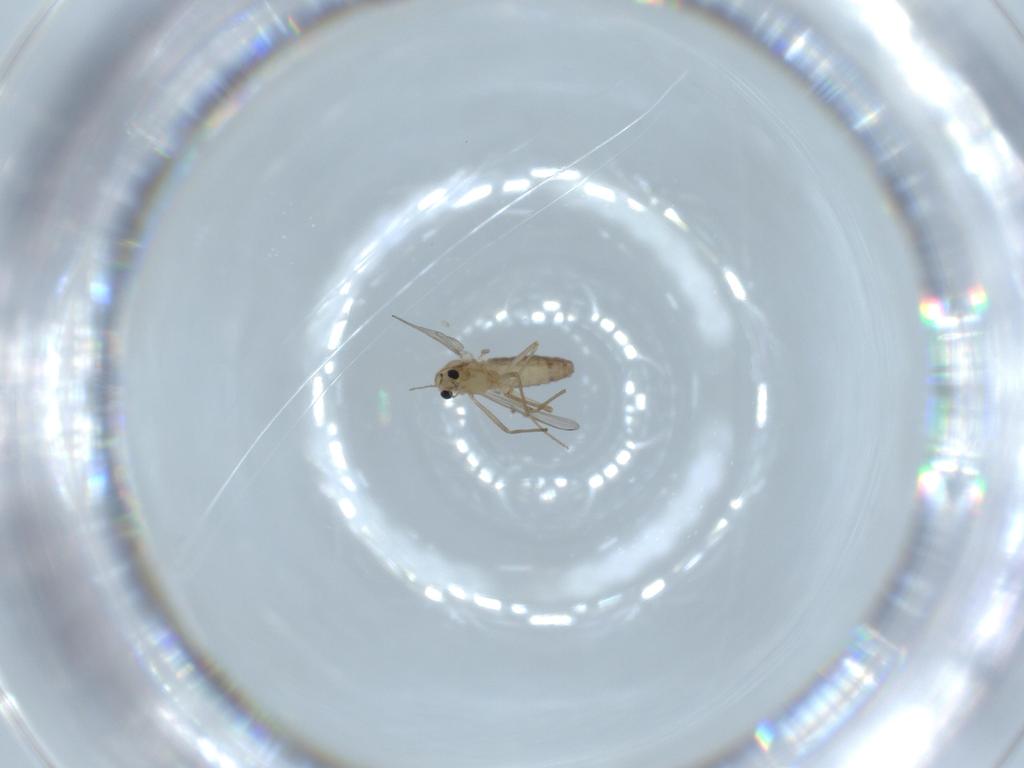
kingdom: Animalia
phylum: Arthropoda
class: Insecta
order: Diptera
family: Chironomidae
